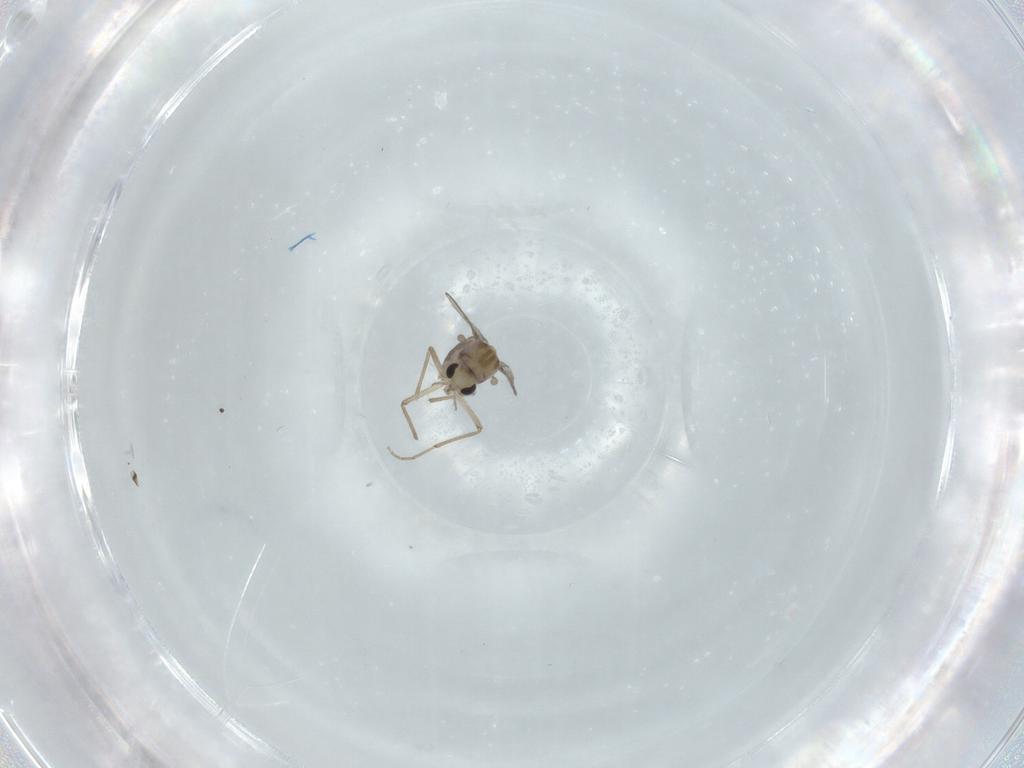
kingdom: Animalia
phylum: Arthropoda
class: Insecta
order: Diptera
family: Chironomidae
